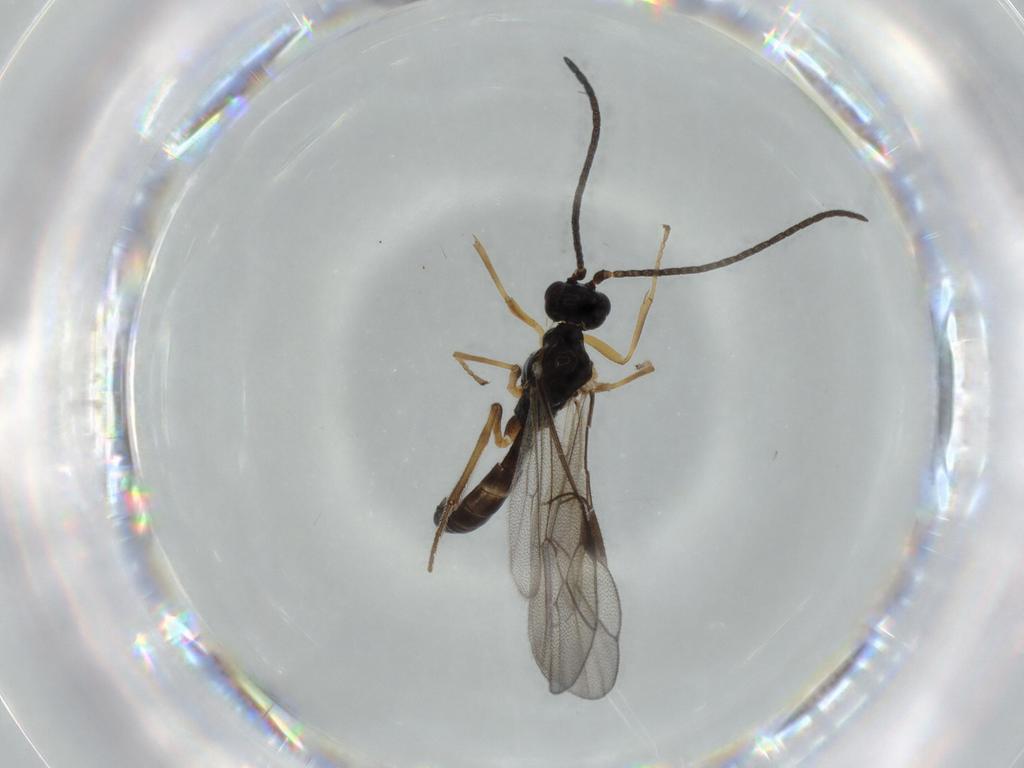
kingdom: Animalia
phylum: Arthropoda
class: Insecta
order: Hymenoptera
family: Ichneumonidae
